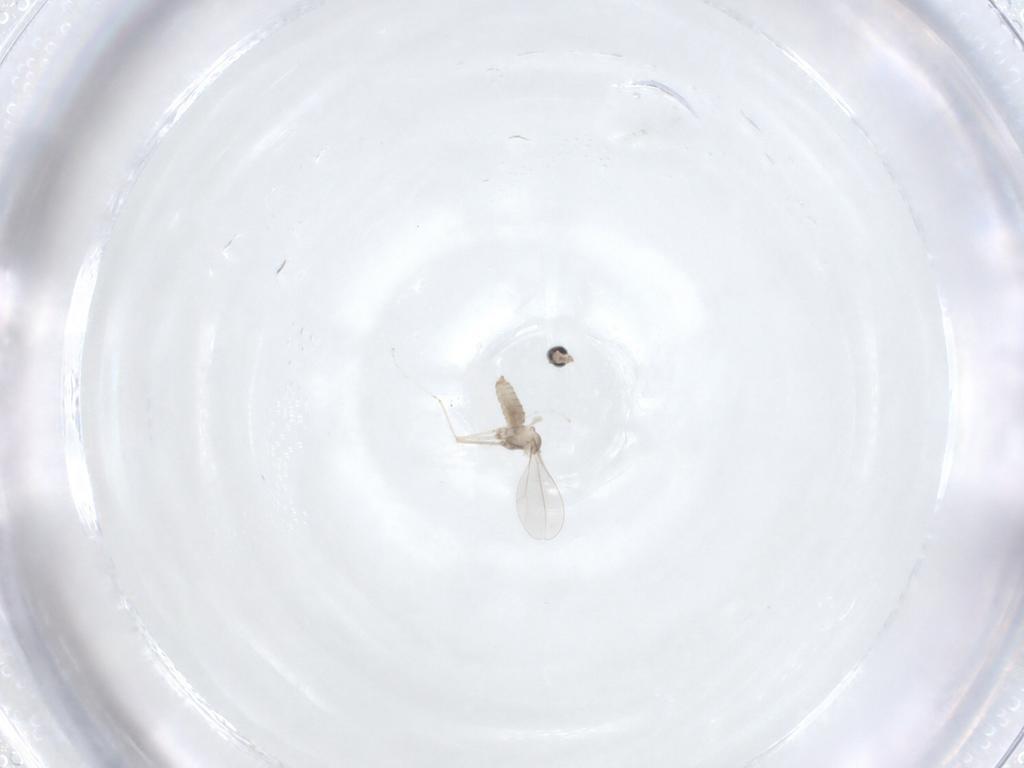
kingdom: Animalia
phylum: Arthropoda
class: Insecta
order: Diptera
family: Cecidomyiidae
